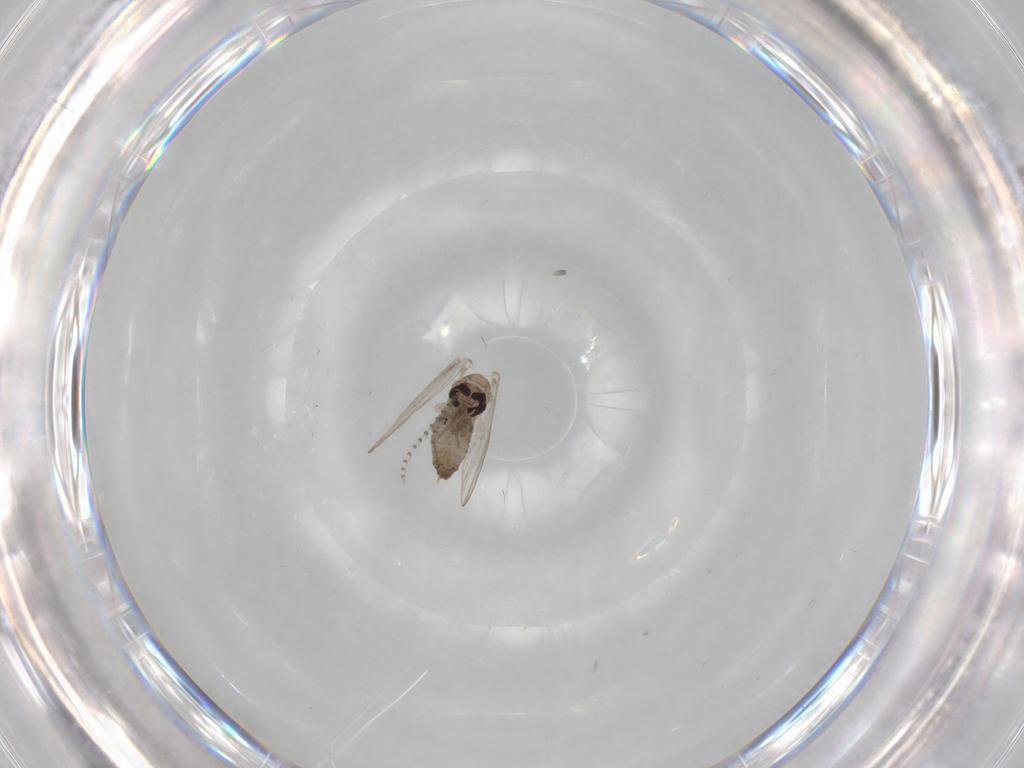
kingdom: Animalia
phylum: Arthropoda
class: Insecta
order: Diptera
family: Psychodidae
